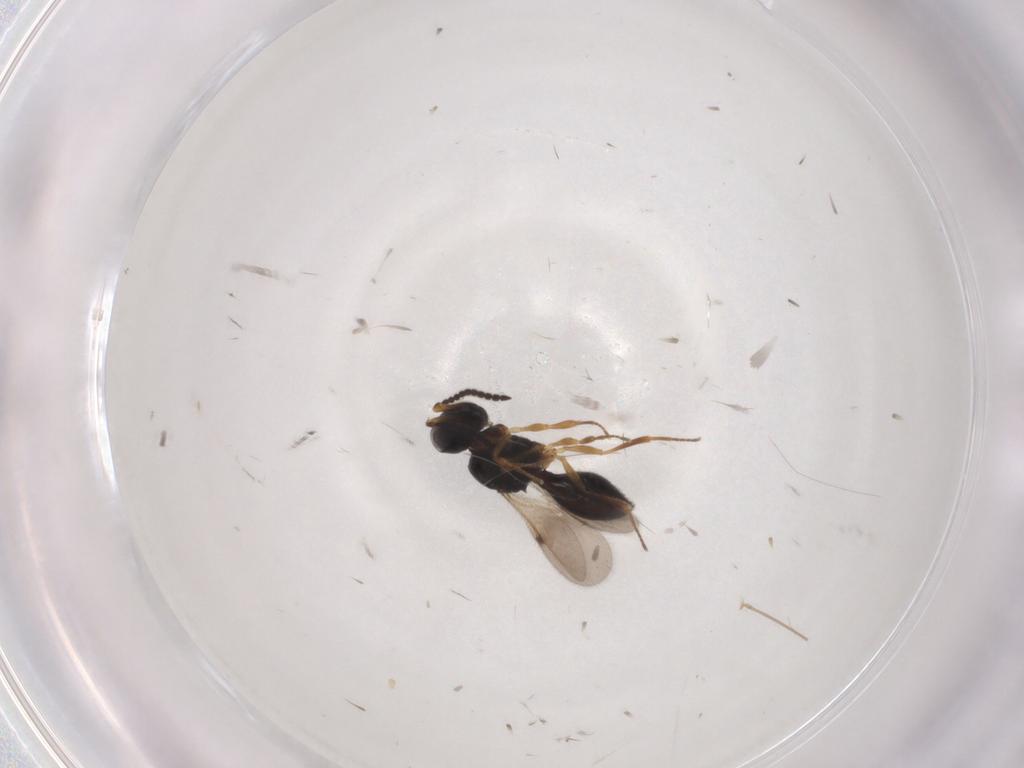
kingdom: Animalia
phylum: Arthropoda
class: Insecta
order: Hymenoptera
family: Scelionidae
